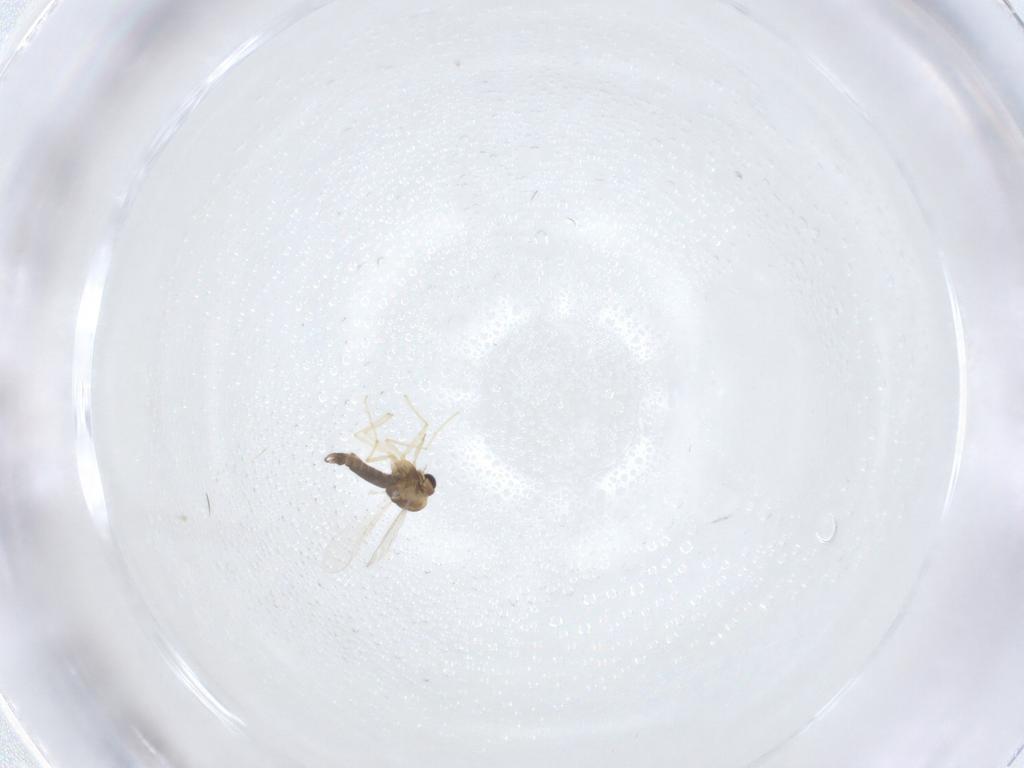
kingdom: Animalia
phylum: Arthropoda
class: Insecta
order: Diptera
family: Chironomidae
